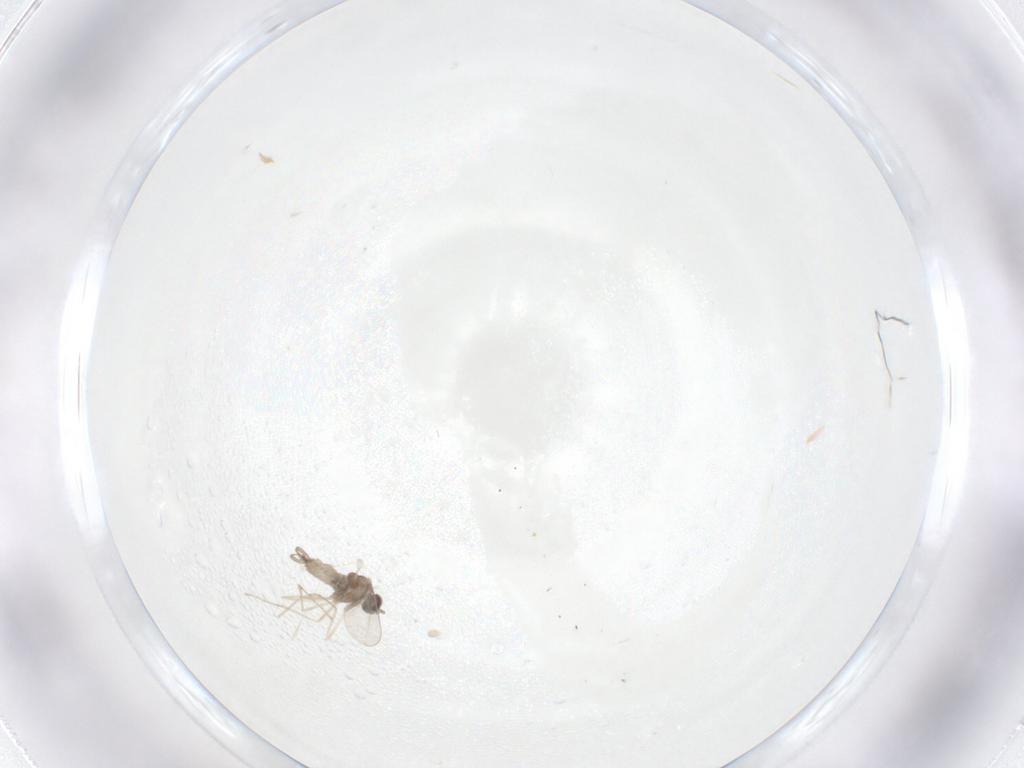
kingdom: Animalia
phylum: Arthropoda
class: Insecta
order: Diptera
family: Cecidomyiidae
